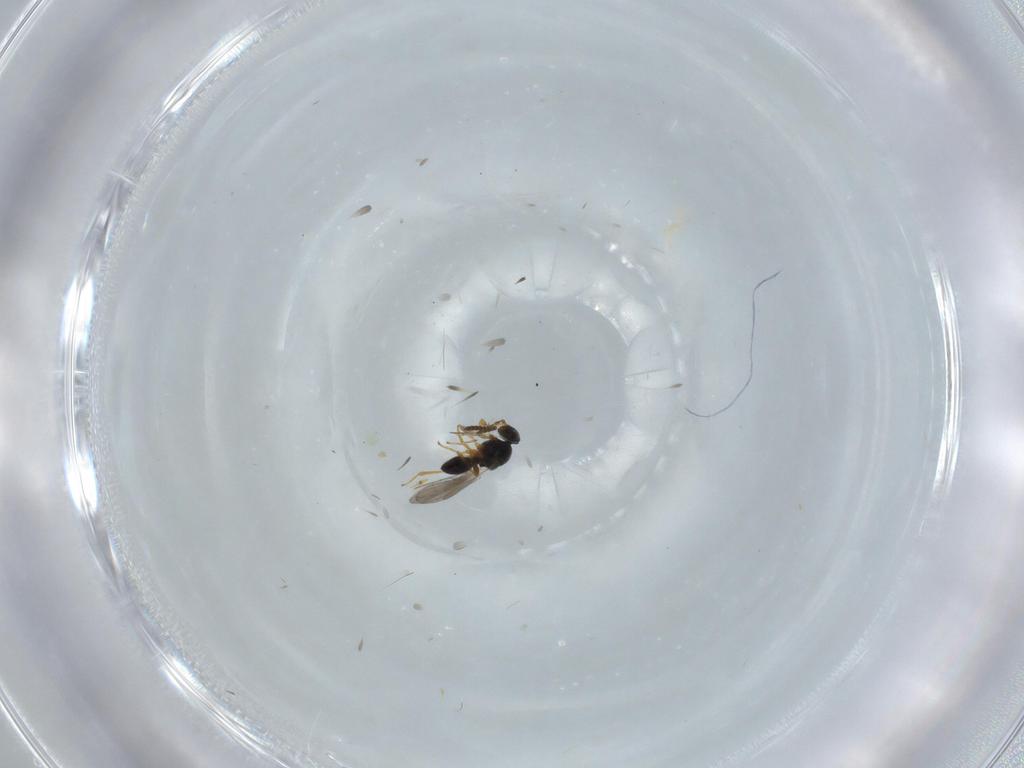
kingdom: Animalia
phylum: Arthropoda
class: Insecta
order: Hymenoptera
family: Platygastridae
